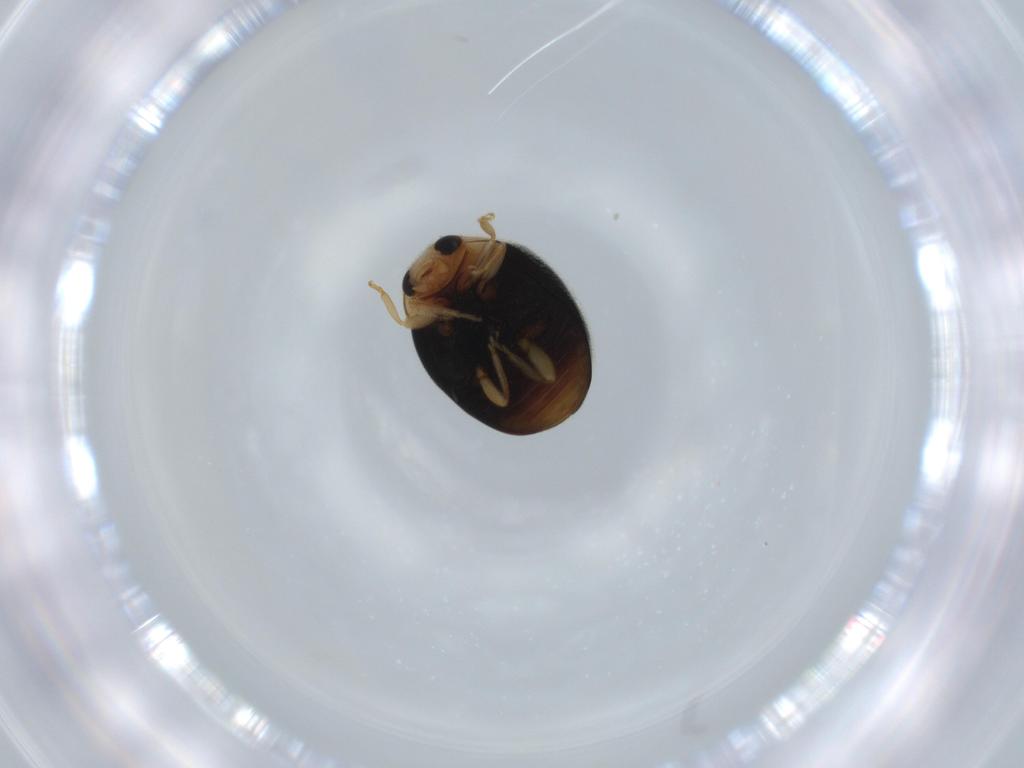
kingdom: Animalia
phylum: Arthropoda
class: Insecta
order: Coleoptera
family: Coccinellidae
